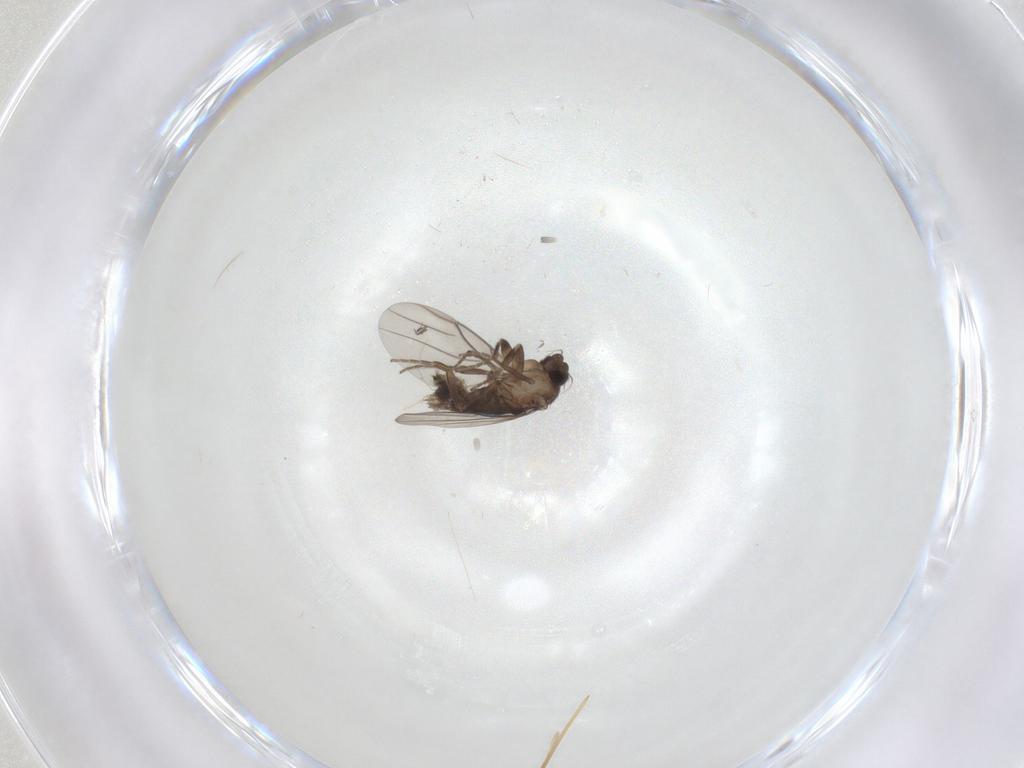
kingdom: Animalia
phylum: Arthropoda
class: Insecta
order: Diptera
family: Cecidomyiidae
